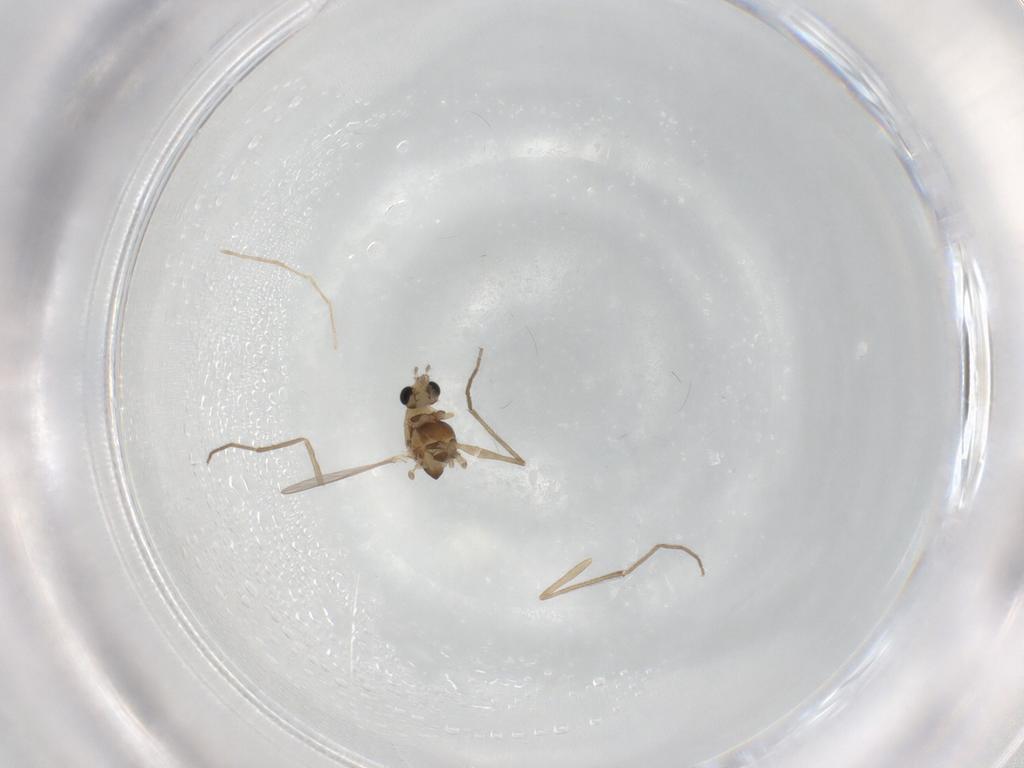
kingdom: Animalia
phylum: Arthropoda
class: Insecta
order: Diptera
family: Chironomidae
